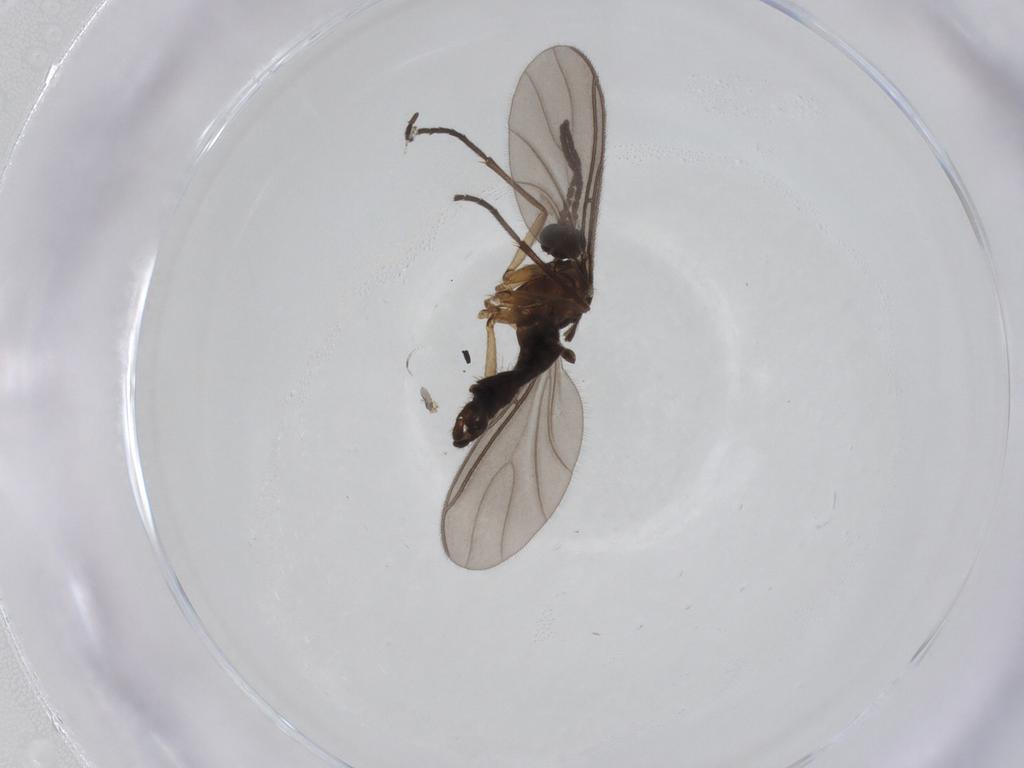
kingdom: Animalia
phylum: Arthropoda
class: Insecta
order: Diptera
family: Sciaridae
